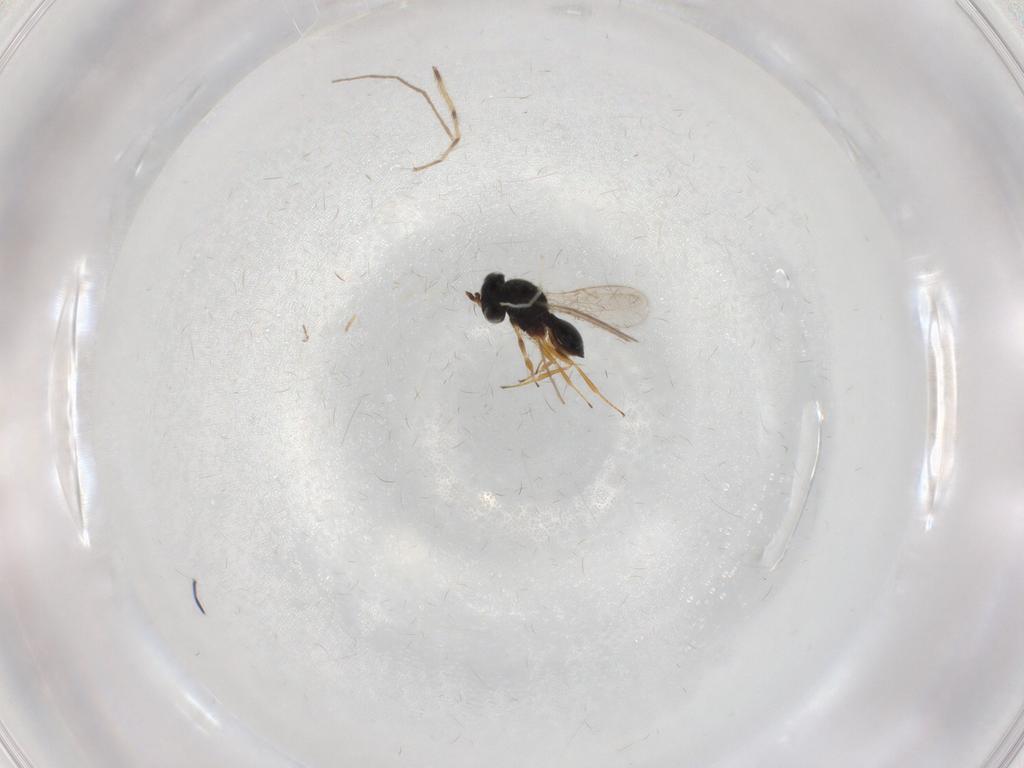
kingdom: Animalia
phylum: Arthropoda
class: Insecta
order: Hymenoptera
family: Scelionidae
